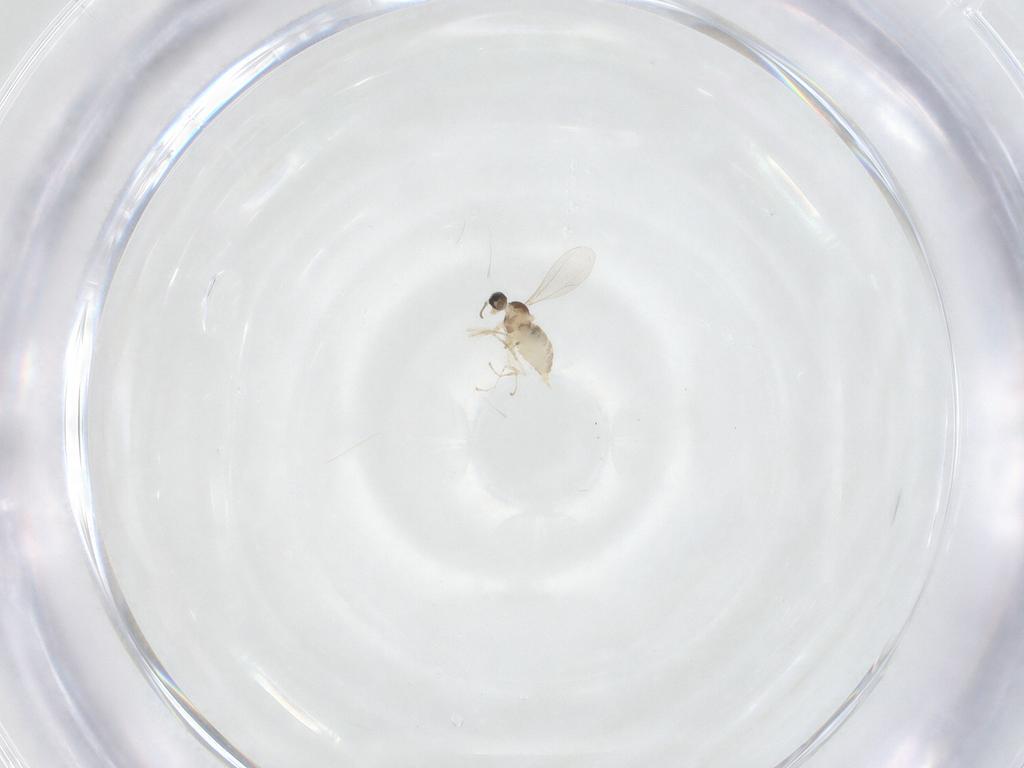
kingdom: Animalia
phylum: Arthropoda
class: Insecta
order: Diptera
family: Cecidomyiidae
